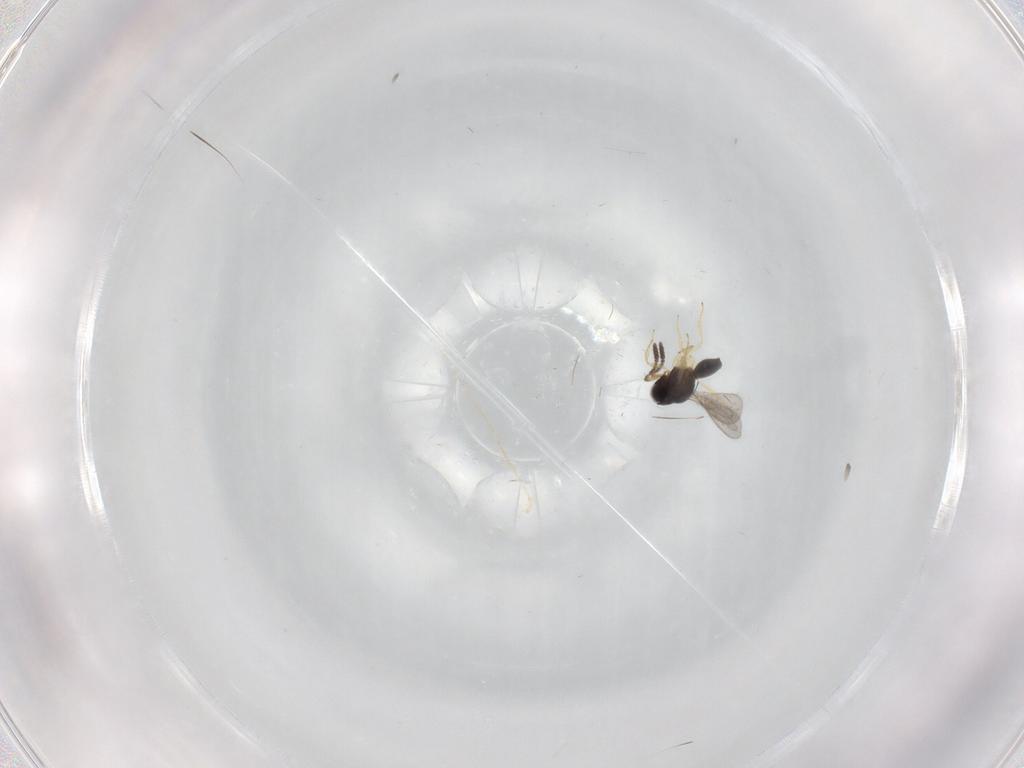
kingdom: Animalia
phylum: Arthropoda
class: Insecta
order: Hymenoptera
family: Scelionidae
